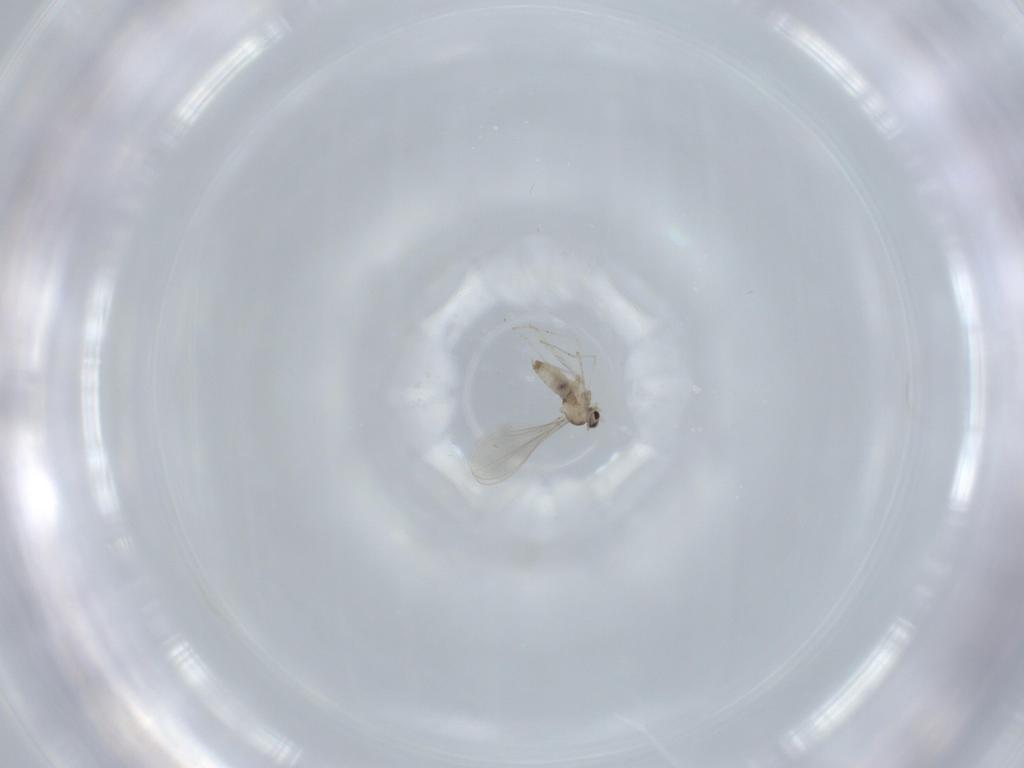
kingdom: Animalia
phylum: Arthropoda
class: Insecta
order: Diptera
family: Cecidomyiidae
